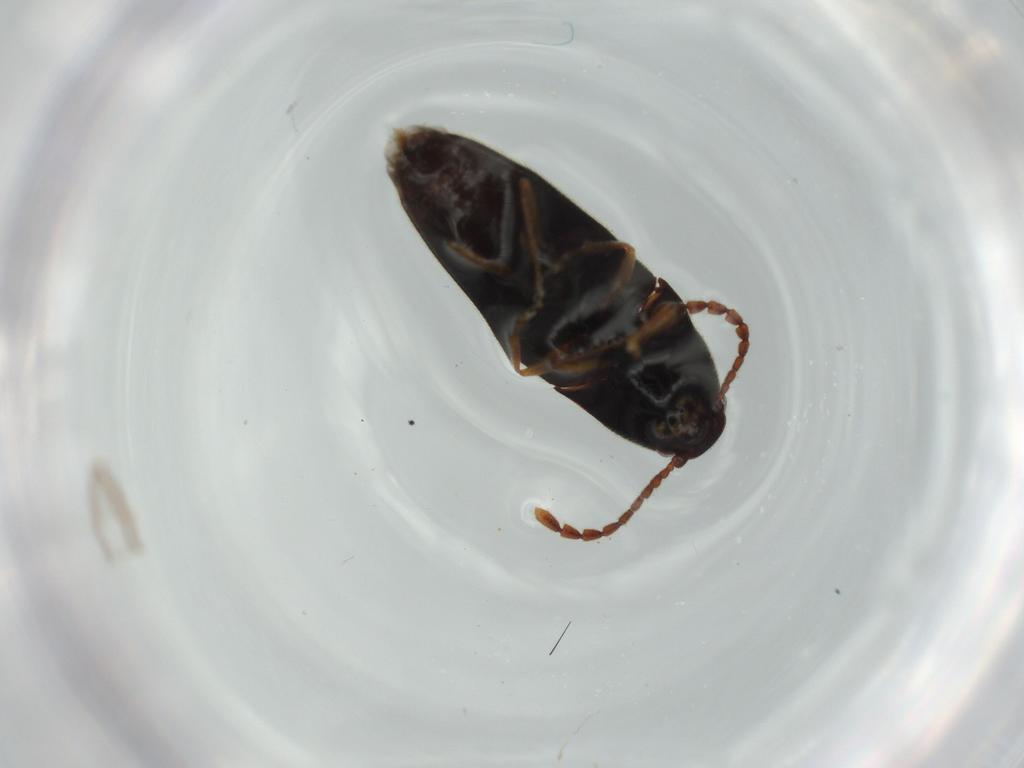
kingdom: Animalia
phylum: Arthropoda
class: Insecta
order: Coleoptera
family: Elateridae
